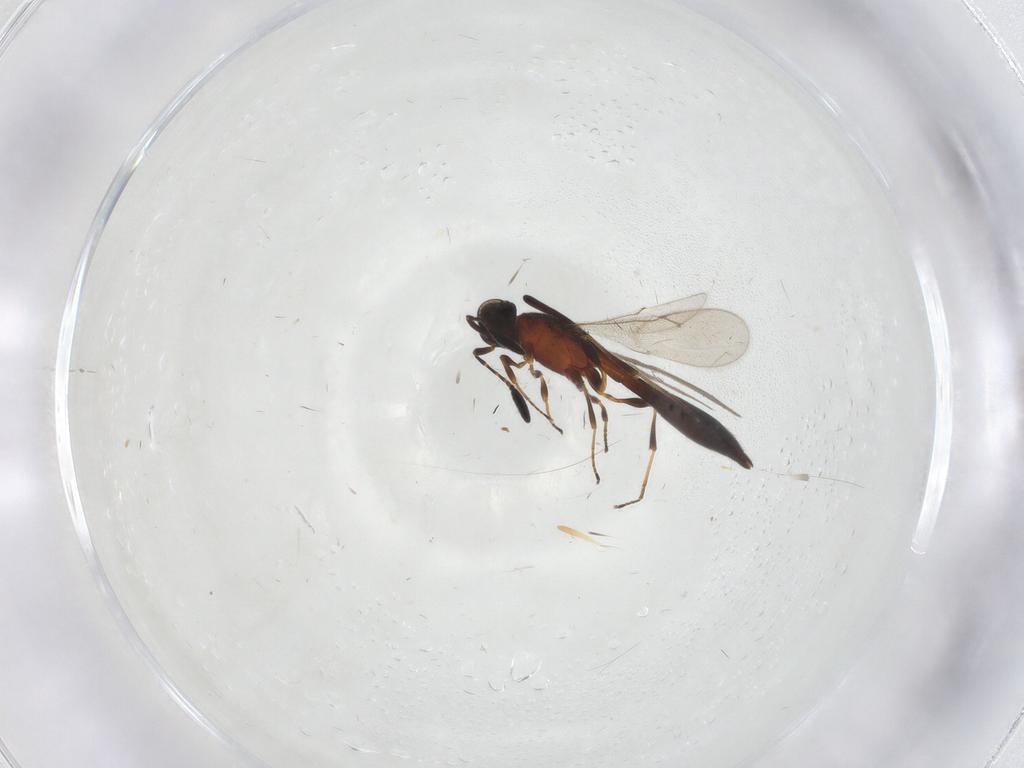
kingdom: Animalia
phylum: Arthropoda
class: Insecta
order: Hymenoptera
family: Scelionidae
